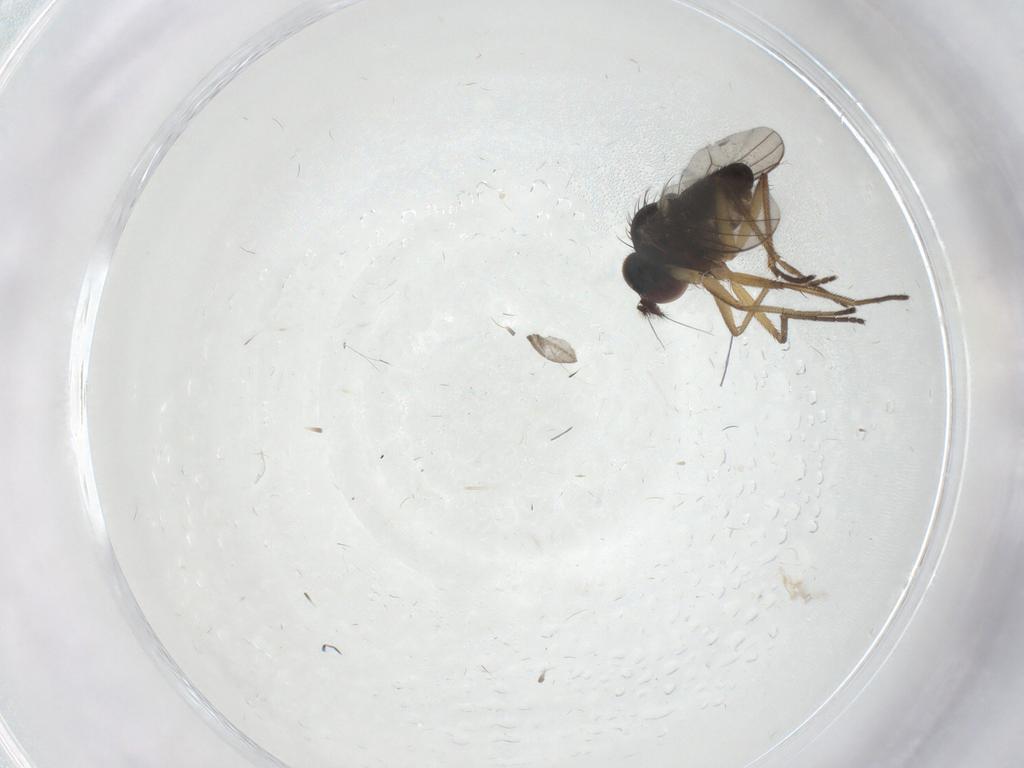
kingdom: Animalia
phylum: Arthropoda
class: Insecta
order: Diptera
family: Dolichopodidae
